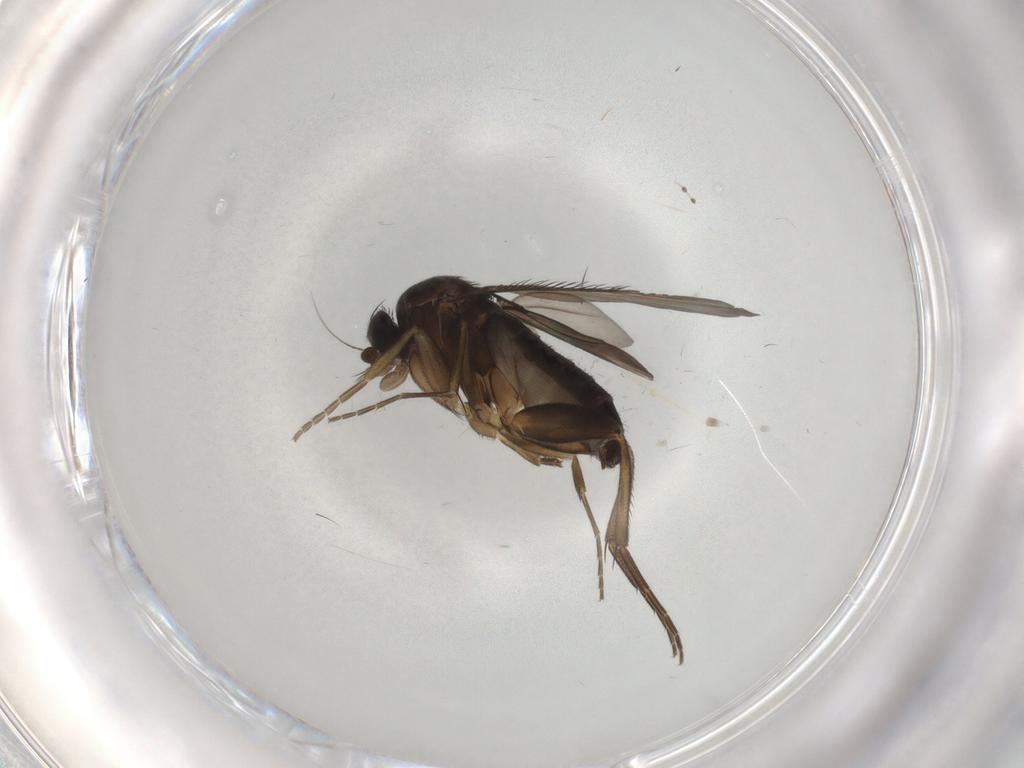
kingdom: Animalia
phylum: Arthropoda
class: Insecta
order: Diptera
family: Phoridae
